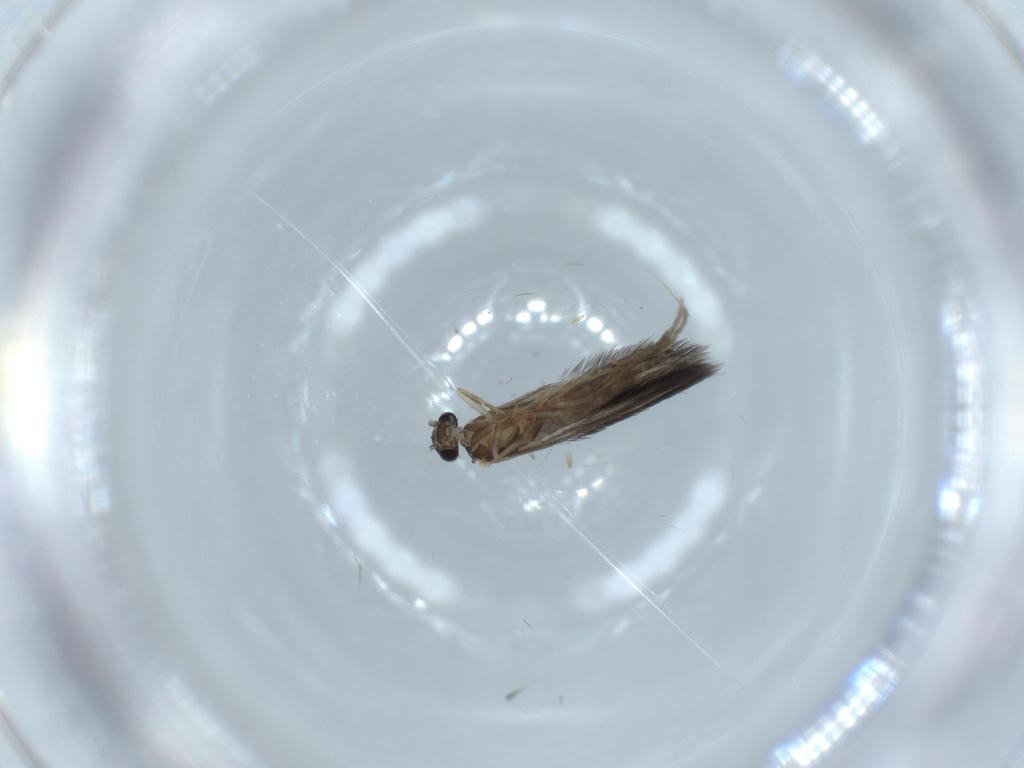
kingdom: Animalia
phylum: Arthropoda
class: Insecta
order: Trichoptera
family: Hydroptilidae
